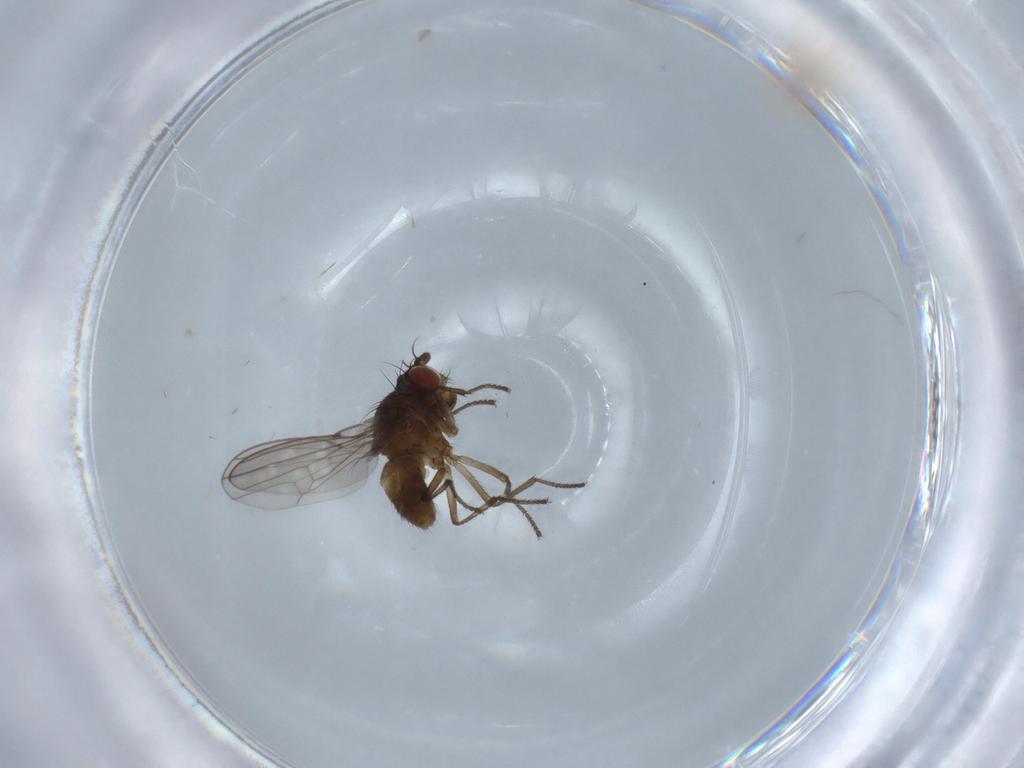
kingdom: Animalia
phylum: Arthropoda
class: Insecta
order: Diptera
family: Ephydridae
